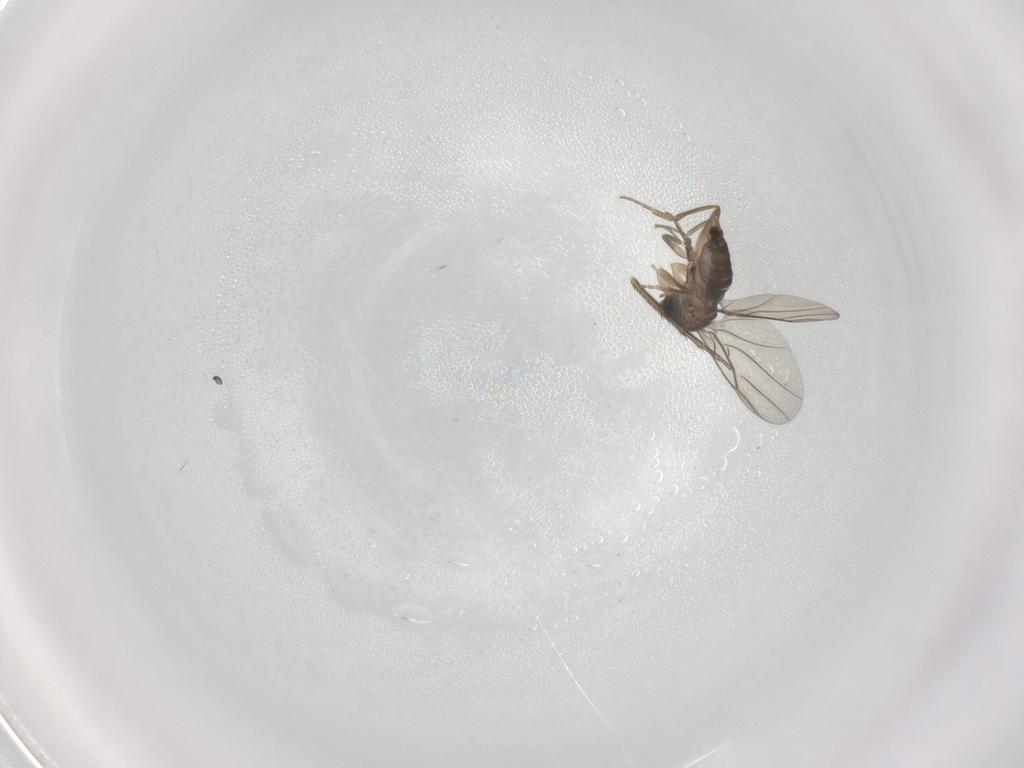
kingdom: Animalia
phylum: Arthropoda
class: Insecta
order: Diptera
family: Phoridae
